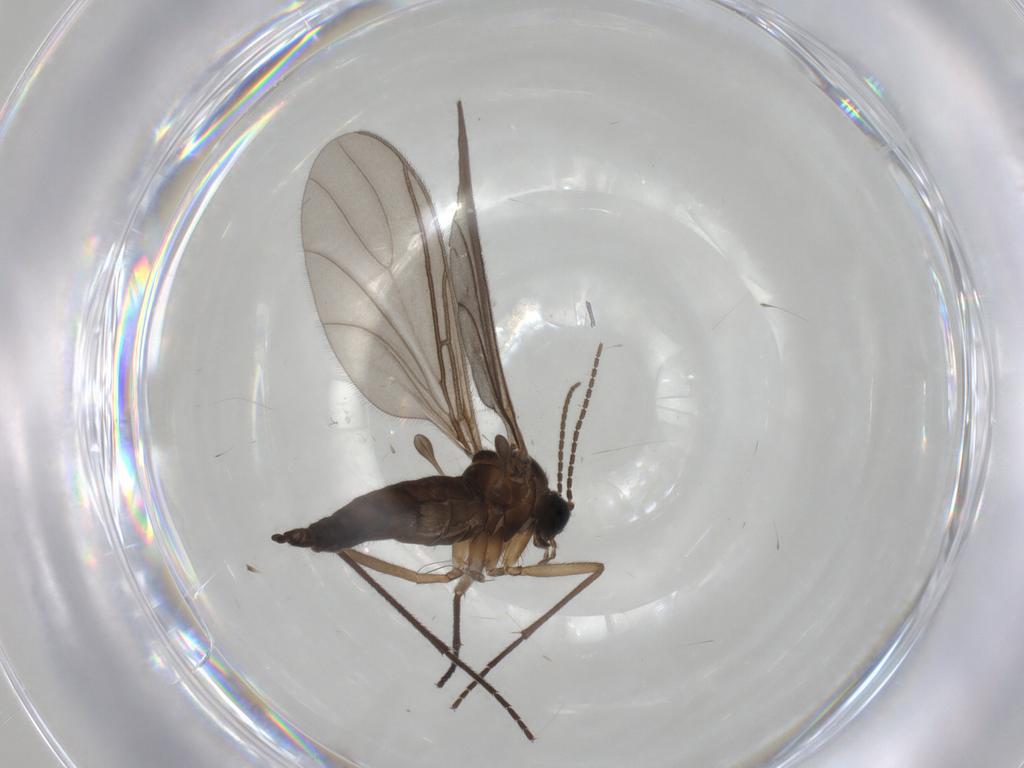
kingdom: Animalia
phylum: Arthropoda
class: Insecta
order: Diptera
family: Sciaridae
